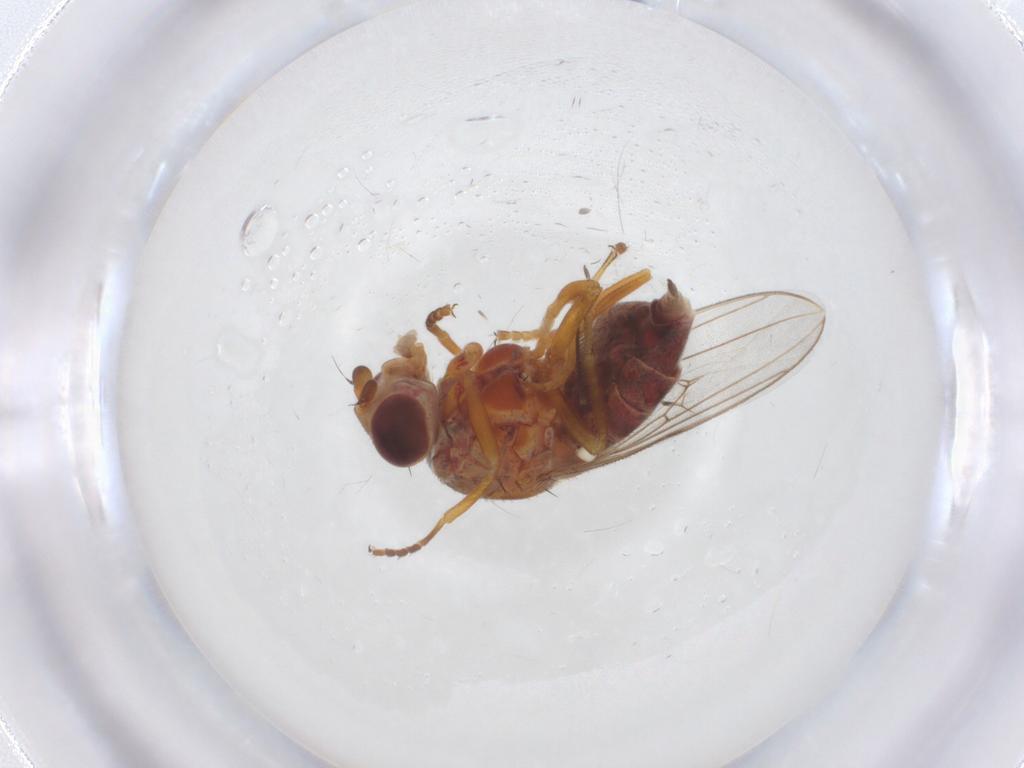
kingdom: Animalia
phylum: Arthropoda
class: Insecta
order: Diptera
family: Chloropidae
